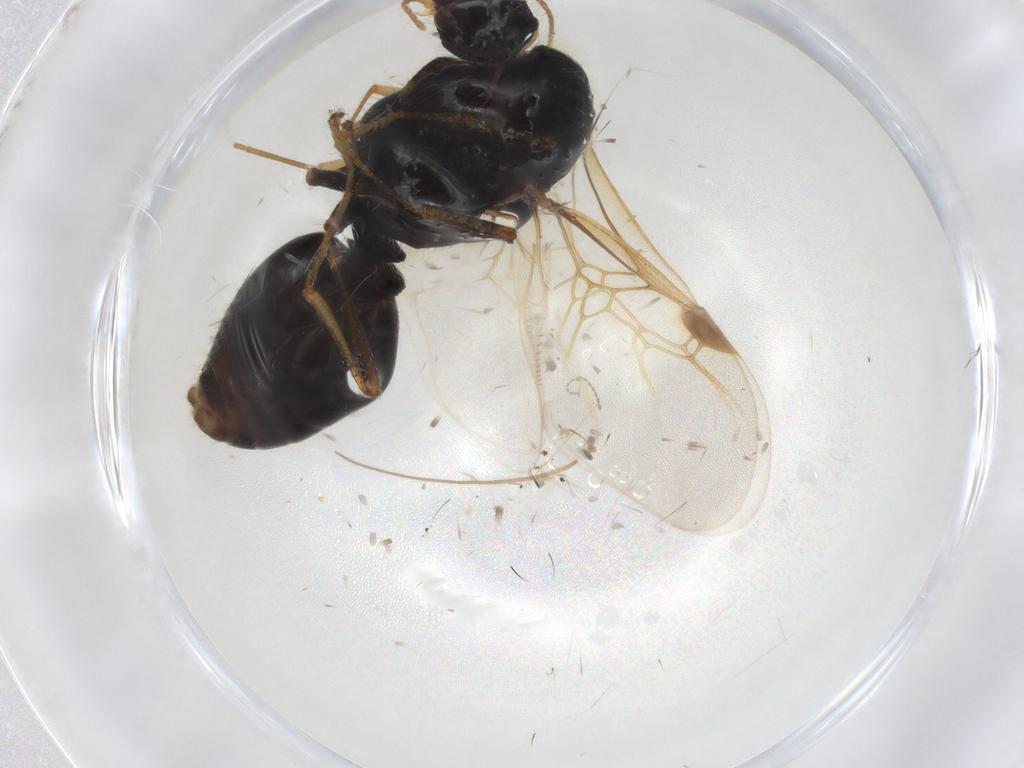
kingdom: Animalia
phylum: Arthropoda
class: Insecta
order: Hymenoptera
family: Formicidae
